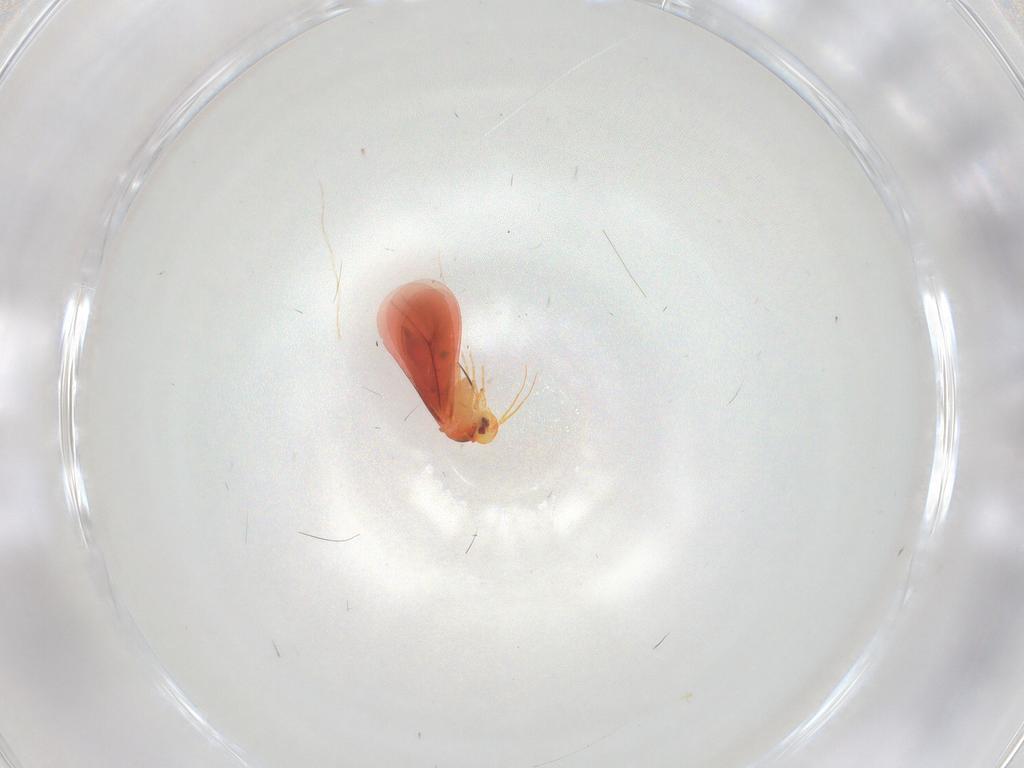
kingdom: Animalia
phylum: Arthropoda
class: Insecta
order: Hemiptera
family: Aleyrodidae
